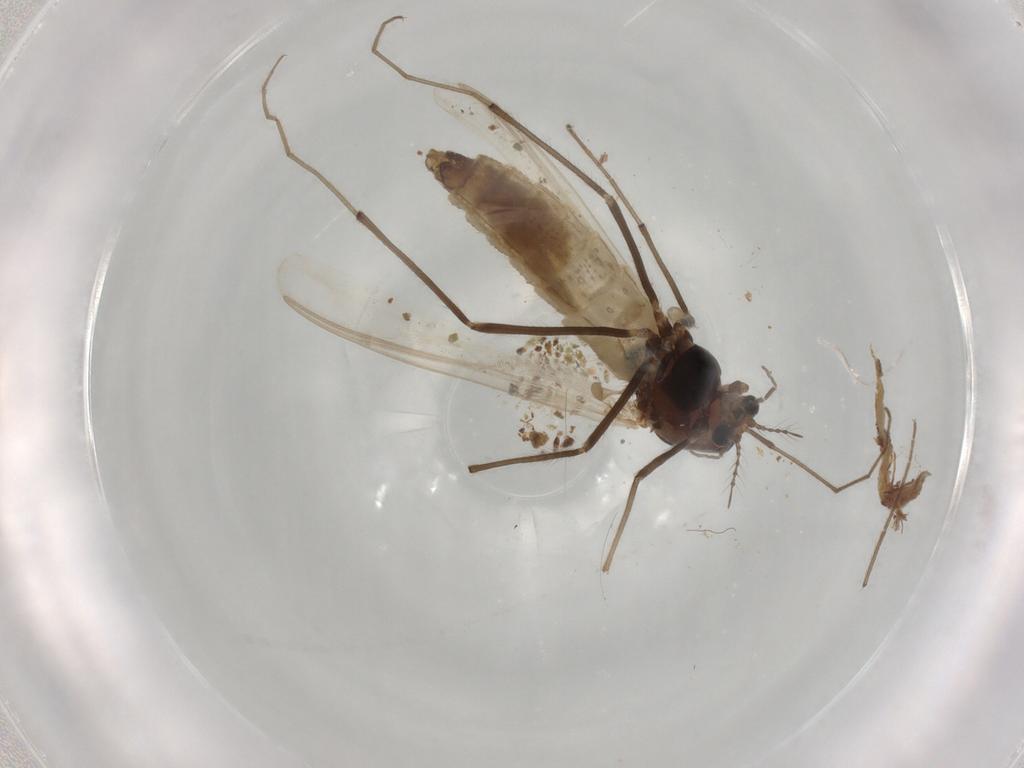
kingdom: Animalia
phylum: Arthropoda
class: Insecta
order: Diptera
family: Chironomidae
